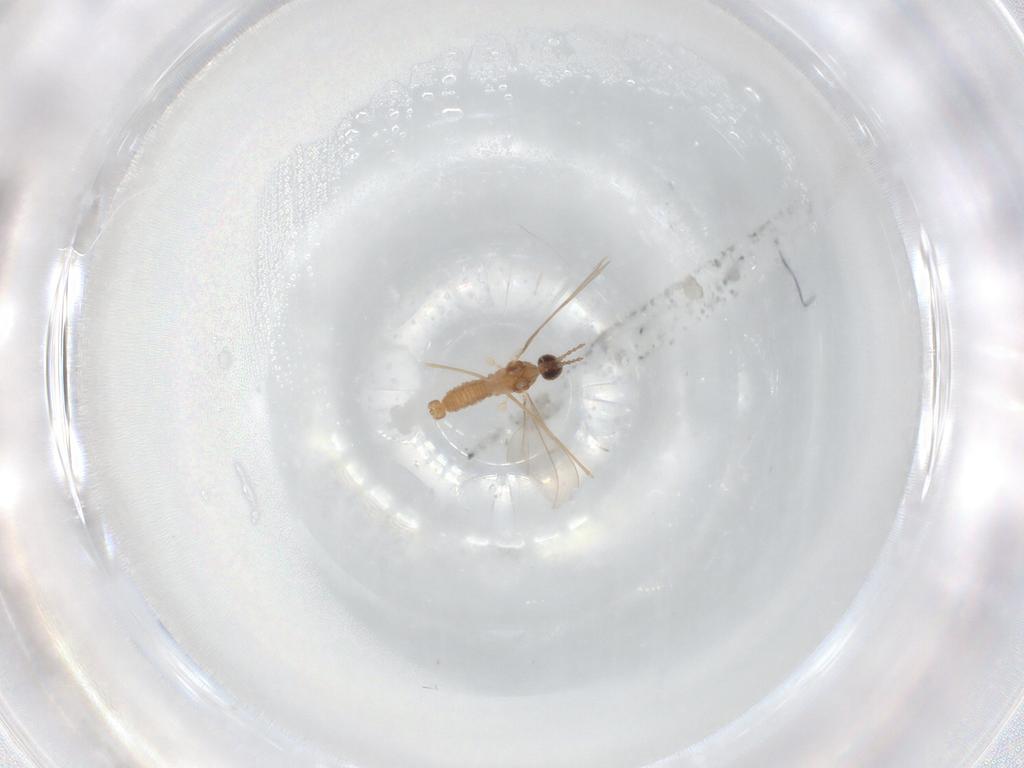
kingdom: Animalia
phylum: Arthropoda
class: Insecta
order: Diptera
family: Cecidomyiidae
